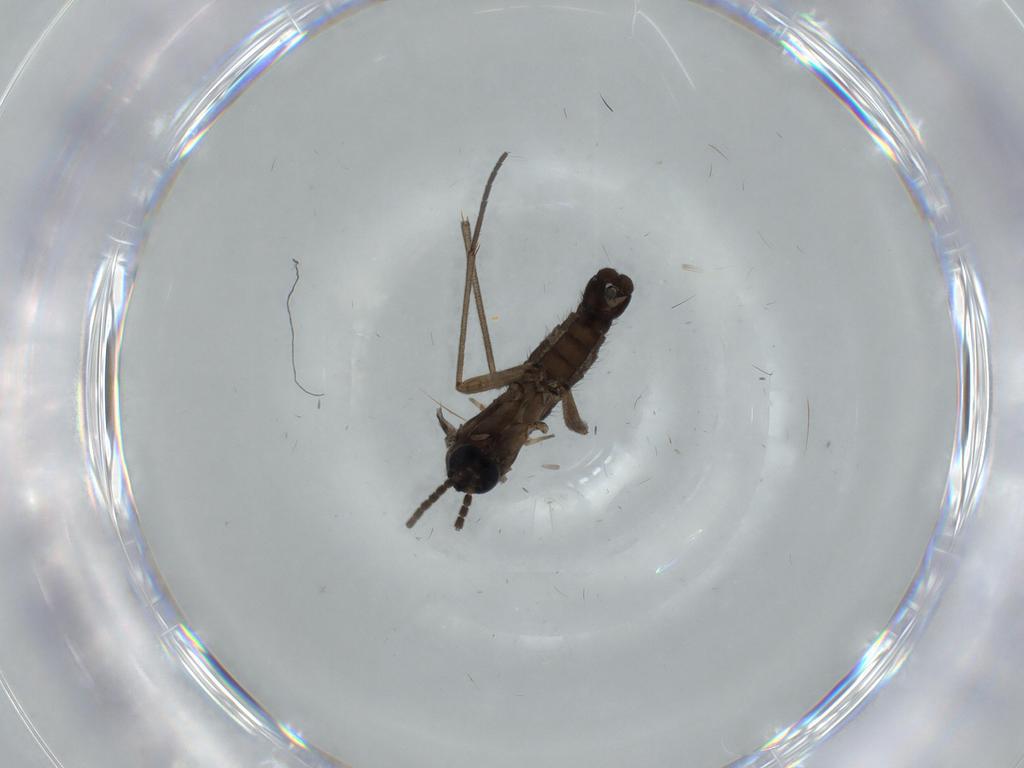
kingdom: Animalia
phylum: Arthropoda
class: Insecta
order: Diptera
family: Sciaridae
